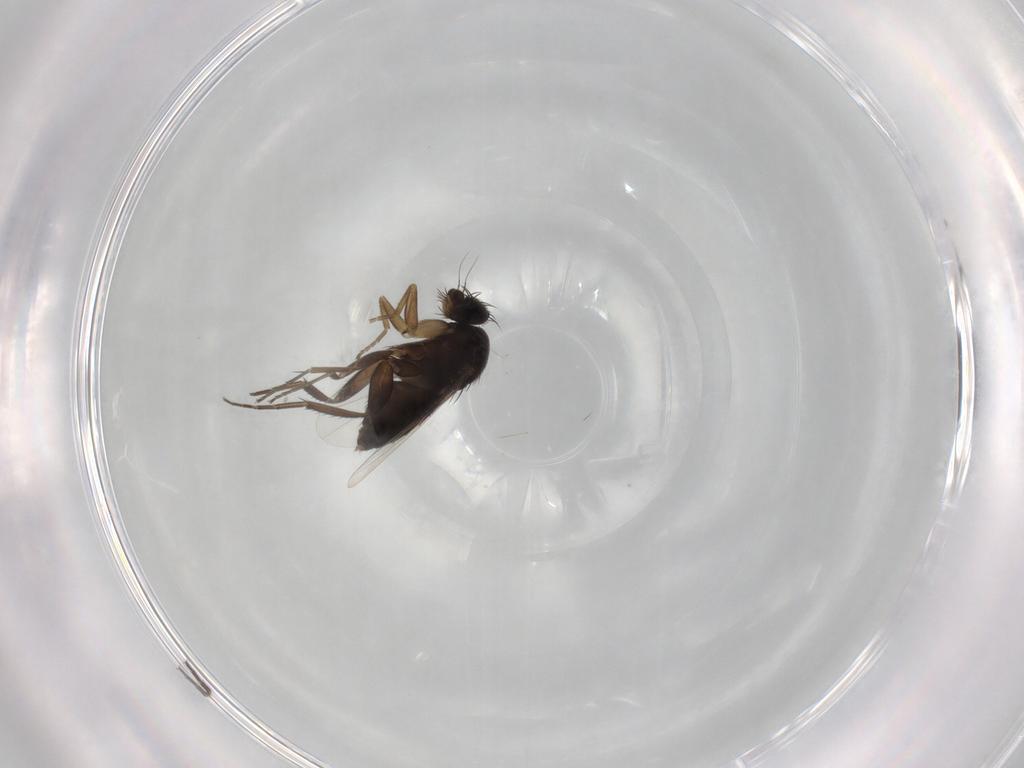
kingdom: Animalia
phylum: Arthropoda
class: Insecta
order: Diptera
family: Phoridae
